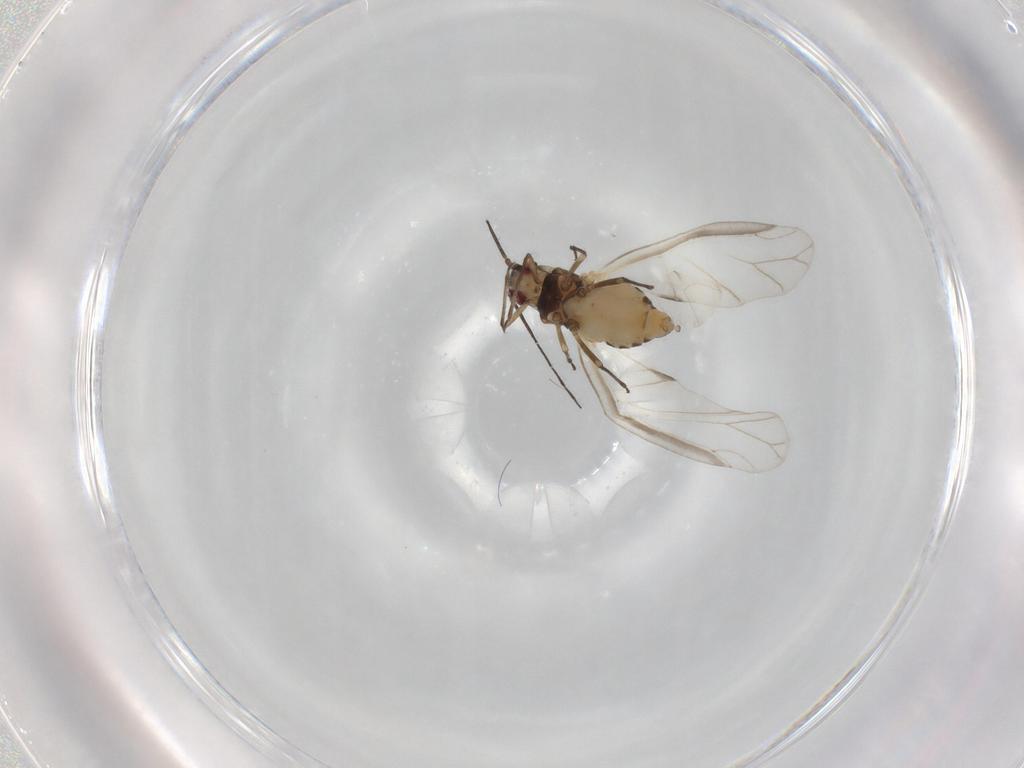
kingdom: Animalia
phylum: Arthropoda
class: Insecta
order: Hemiptera
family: Aphididae
